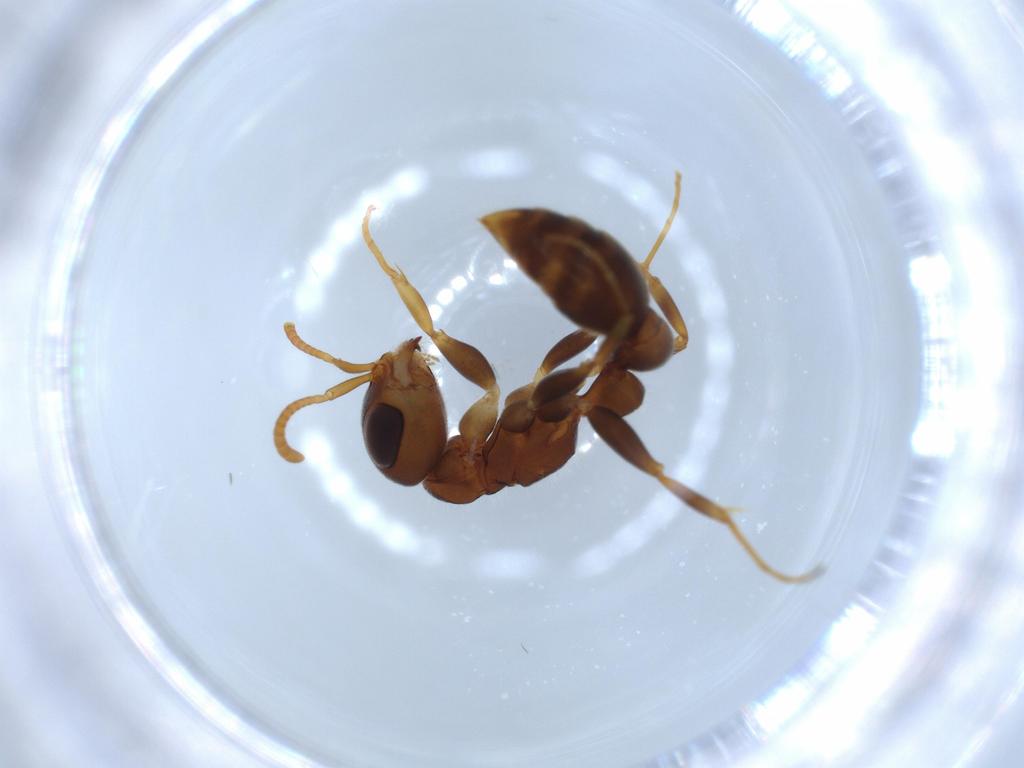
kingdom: Animalia
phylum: Arthropoda
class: Insecta
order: Hymenoptera
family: Formicidae
